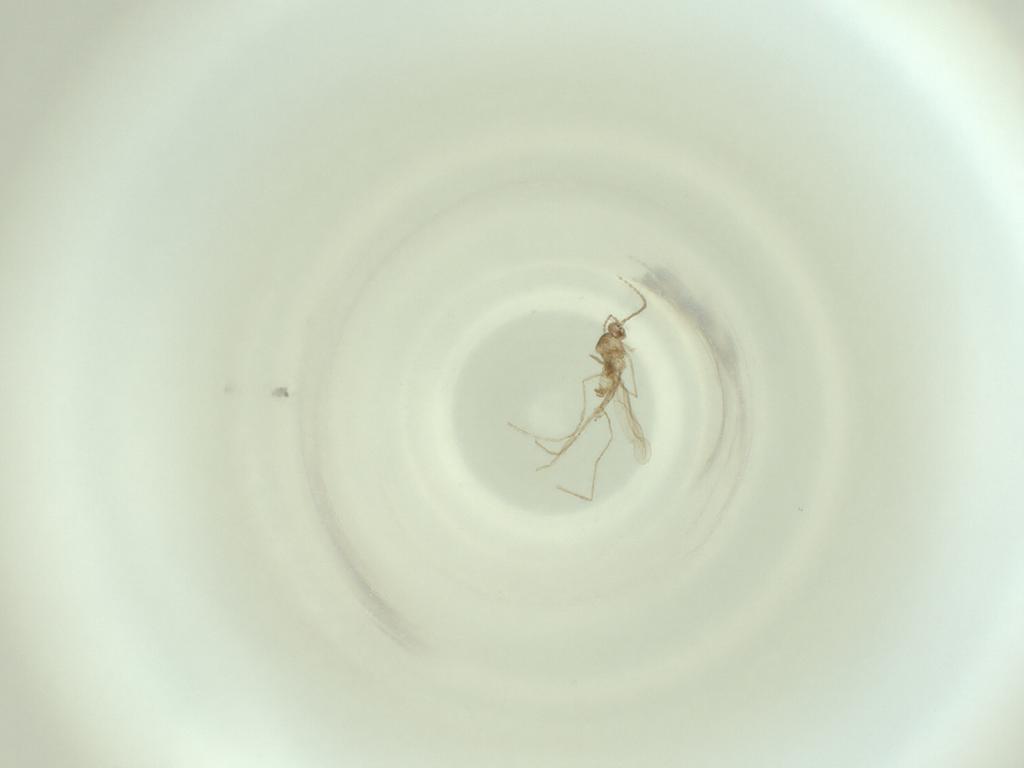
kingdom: Animalia
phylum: Arthropoda
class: Insecta
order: Diptera
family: Cecidomyiidae
